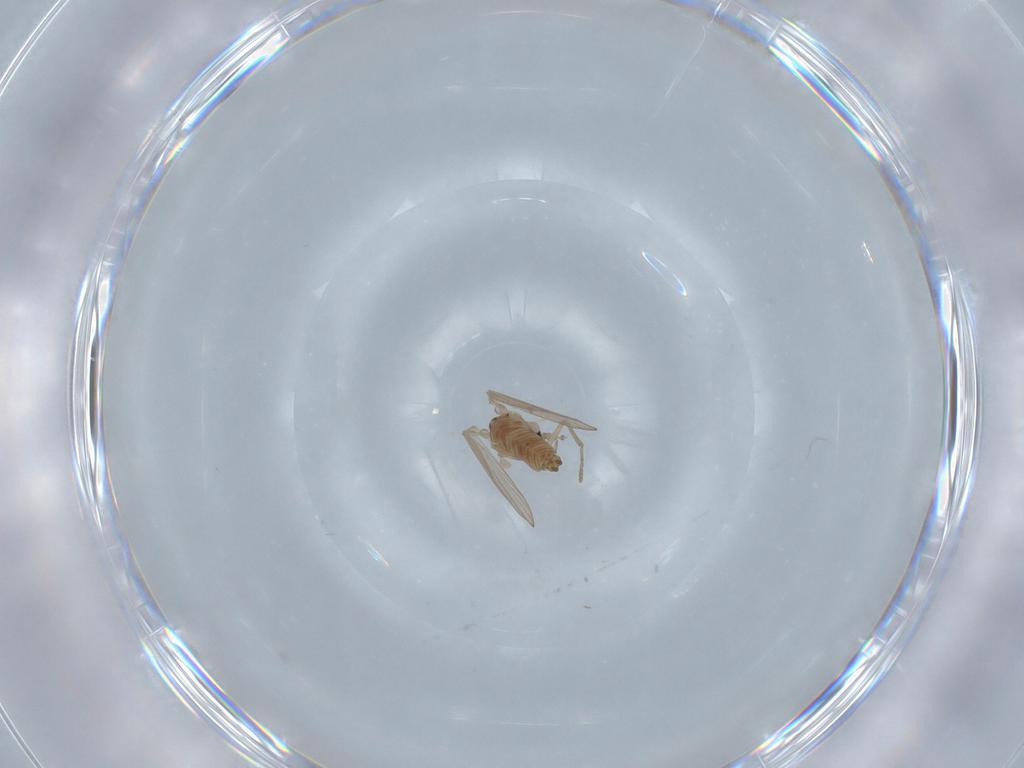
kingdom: Animalia
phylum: Arthropoda
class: Insecta
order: Diptera
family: Psychodidae
